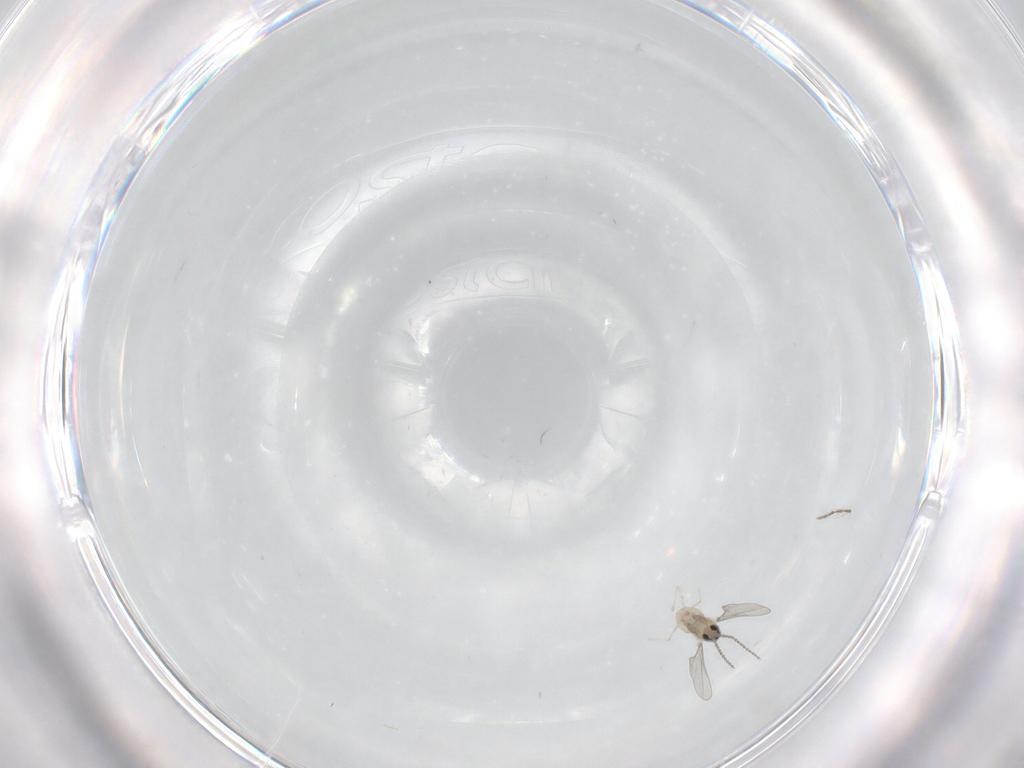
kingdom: Animalia
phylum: Arthropoda
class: Insecta
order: Diptera
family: Cecidomyiidae
